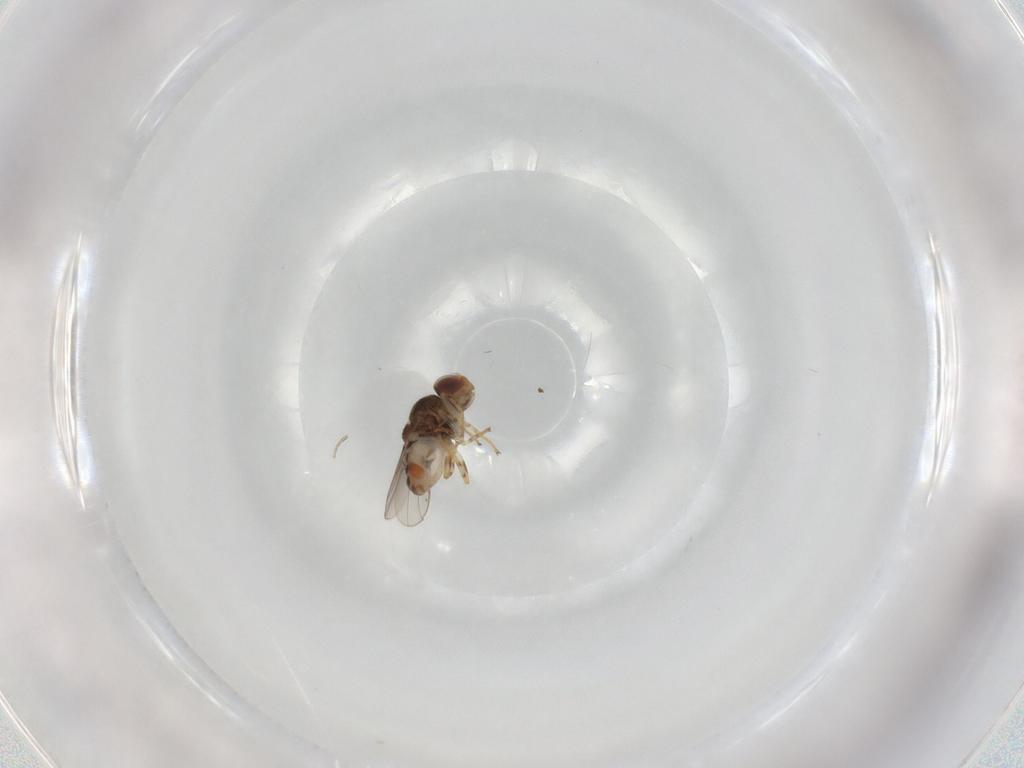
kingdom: Animalia
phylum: Arthropoda
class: Insecta
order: Diptera
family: Chloropidae
